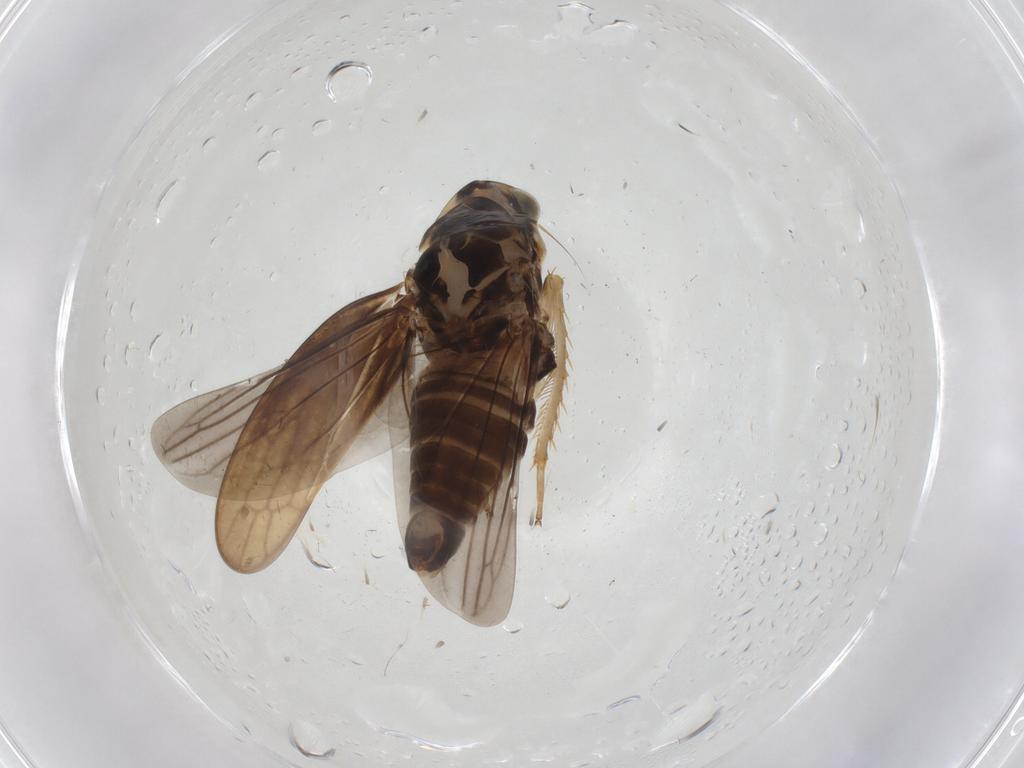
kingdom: Animalia
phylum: Arthropoda
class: Insecta
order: Hemiptera
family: Cicadellidae
